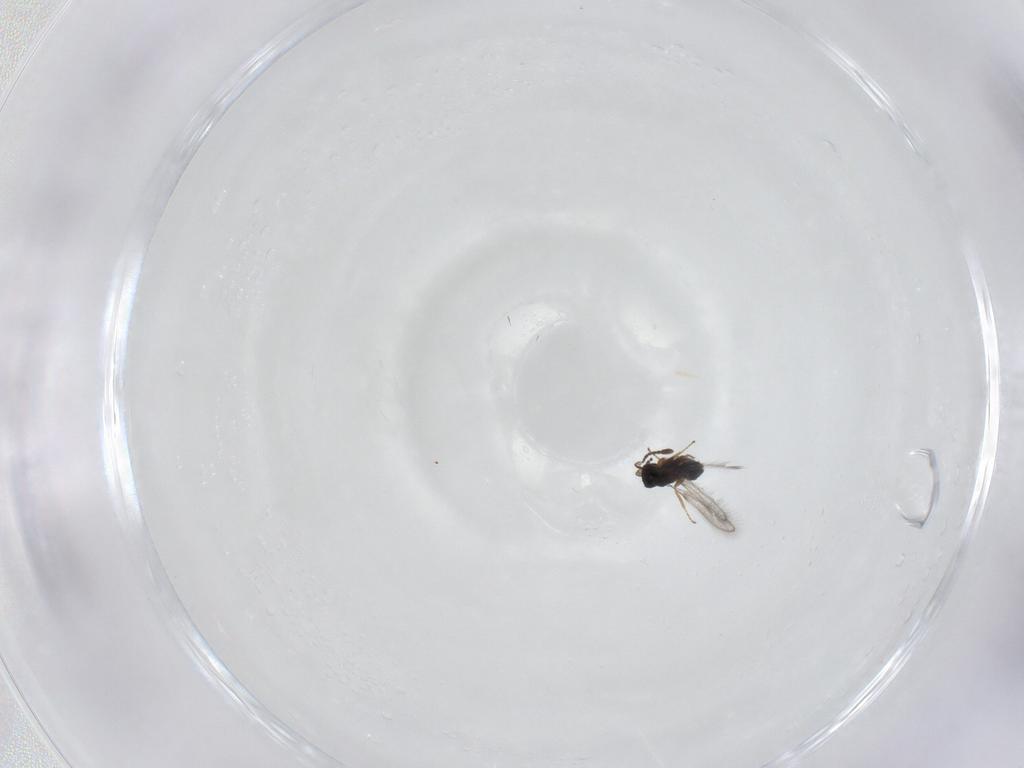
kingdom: Animalia
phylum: Arthropoda
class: Insecta
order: Hymenoptera
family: Mymaridae
